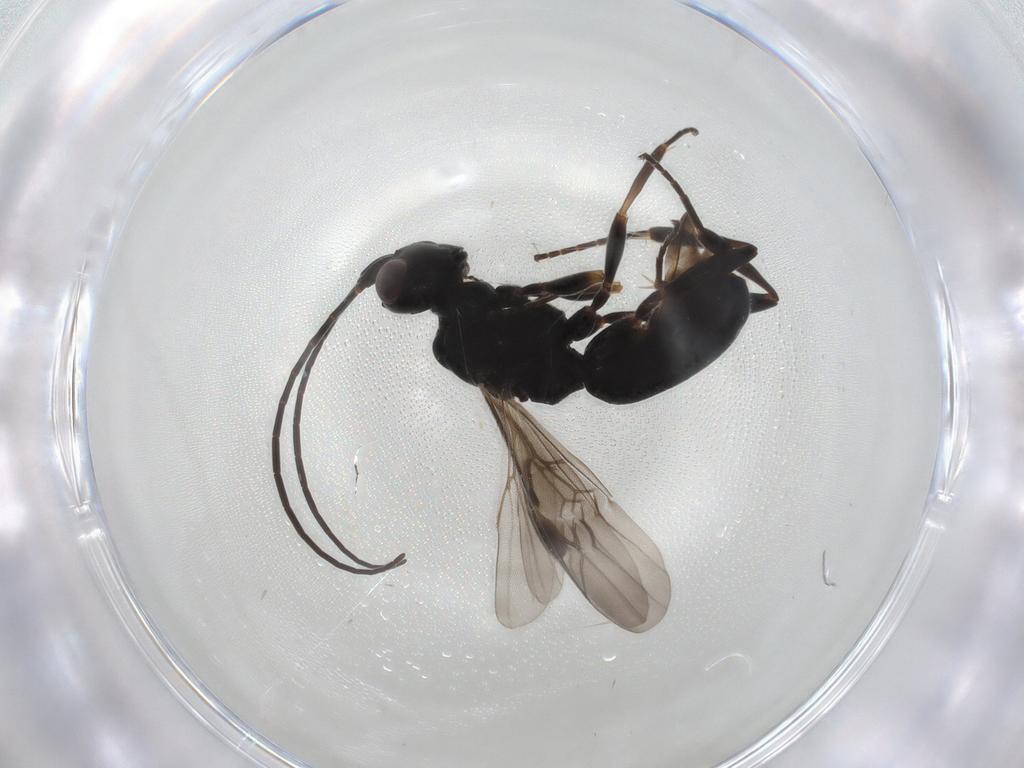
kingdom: Animalia
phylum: Arthropoda
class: Insecta
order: Hymenoptera
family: Braconidae
